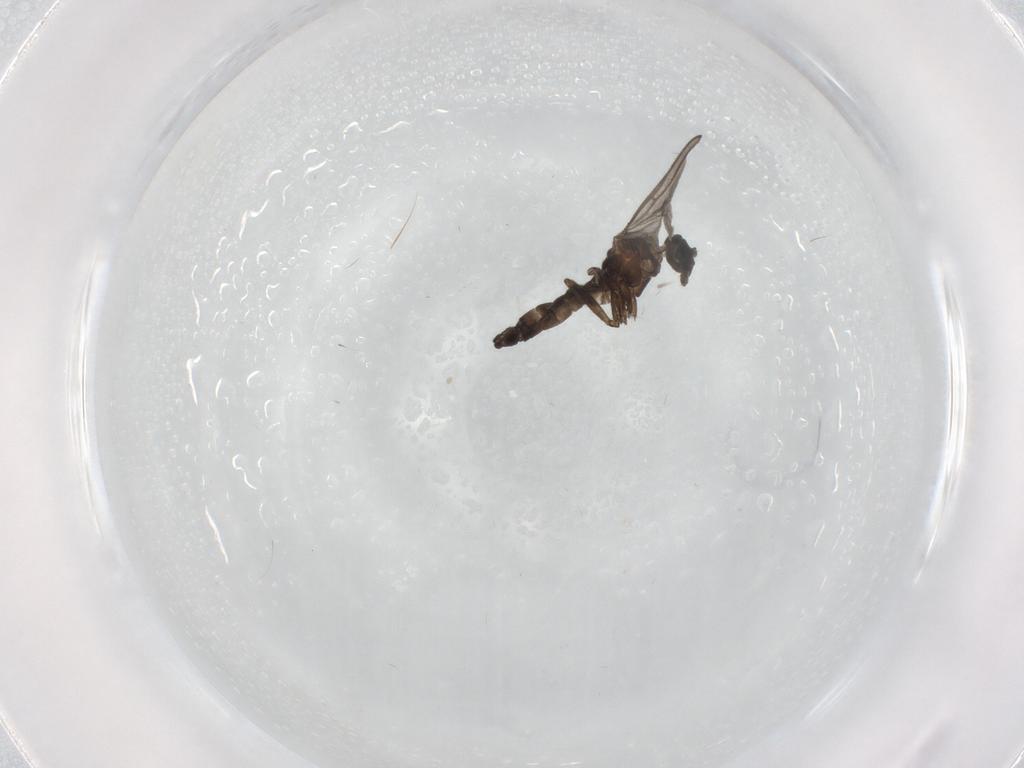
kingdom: Animalia
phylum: Arthropoda
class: Insecta
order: Diptera
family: Phoridae
